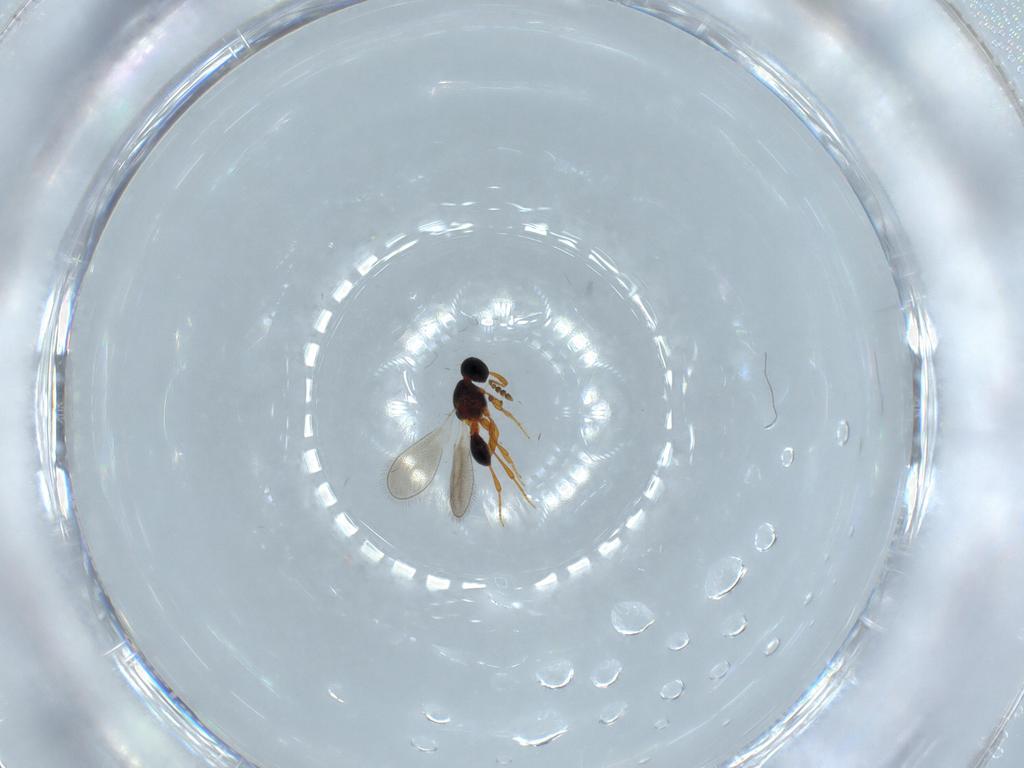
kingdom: Animalia
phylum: Arthropoda
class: Insecta
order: Hymenoptera
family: Platygastridae
